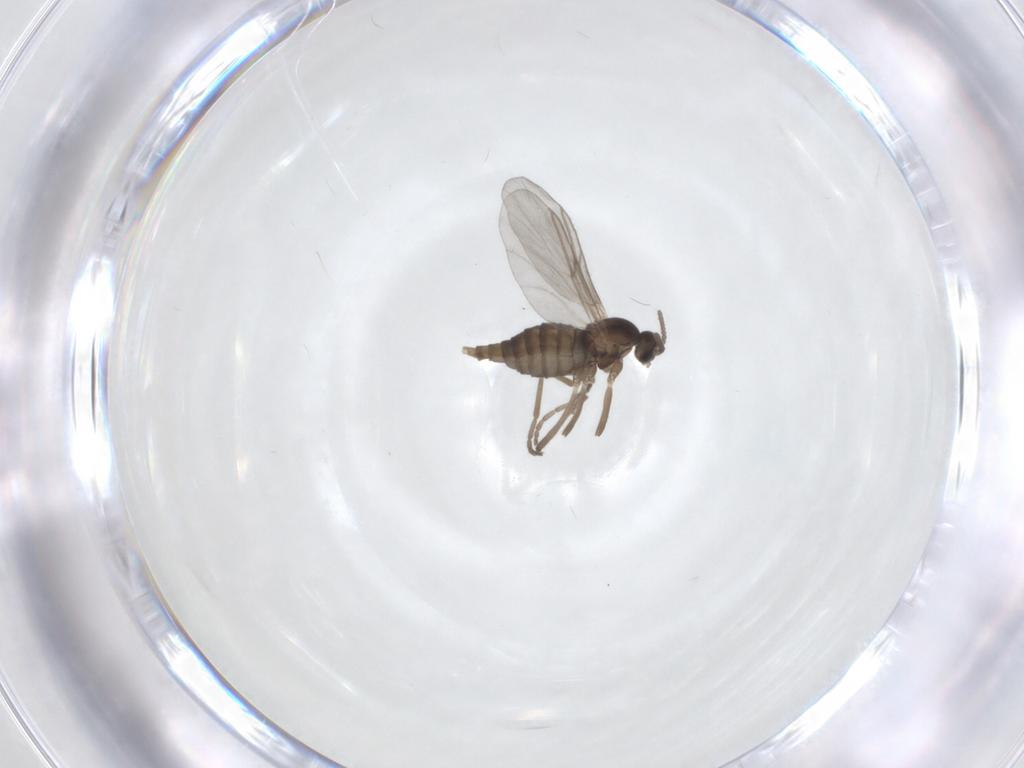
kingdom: Animalia
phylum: Arthropoda
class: Insecta
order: Diptera
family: Cecidomyiidae
